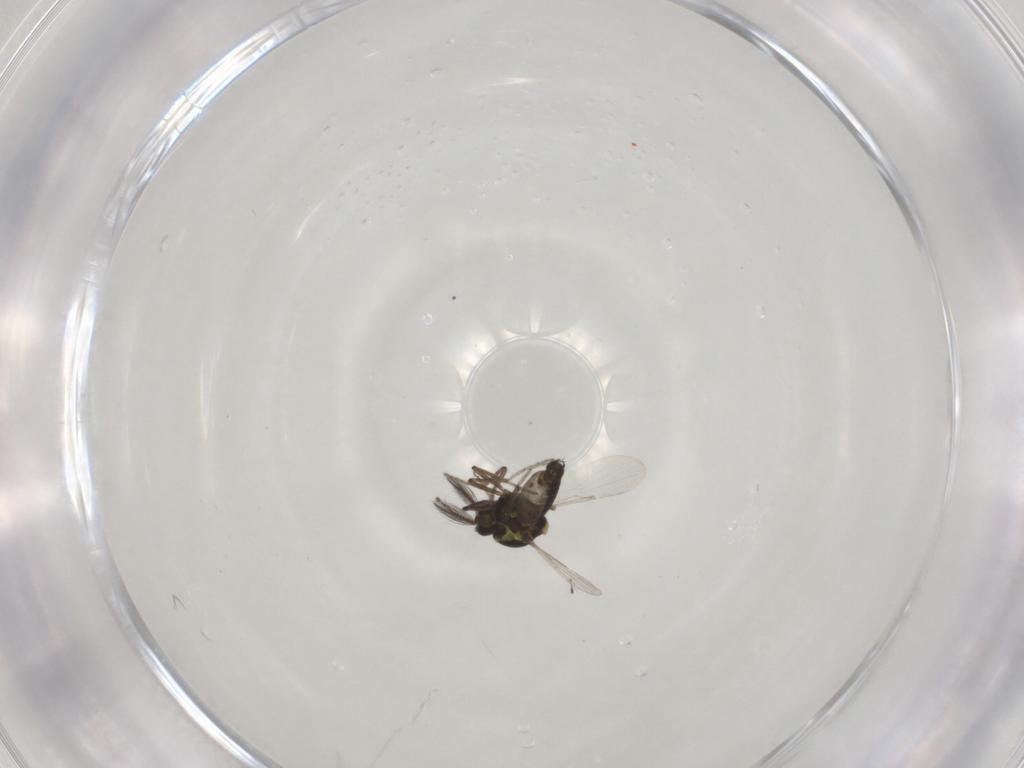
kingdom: Animalia
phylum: Arthropoda
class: Insecta
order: Diptera
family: Ceratopogonidae
